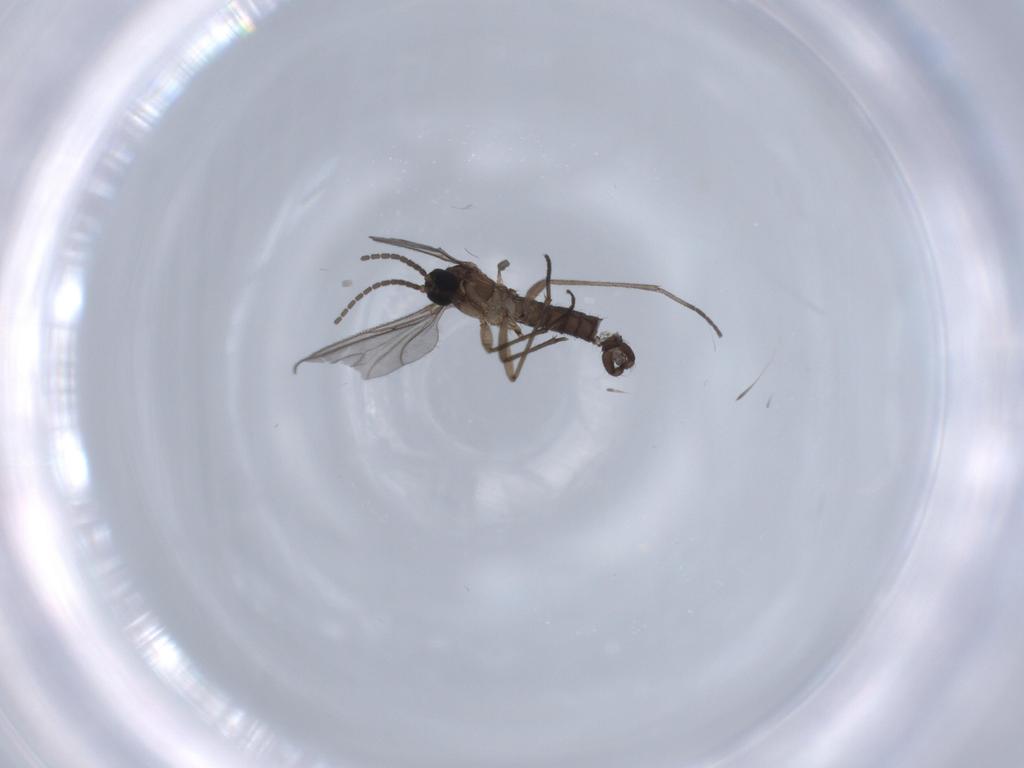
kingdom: Animalia
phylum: Arthropoda
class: Insecta
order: Diptera
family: Sciaridae
